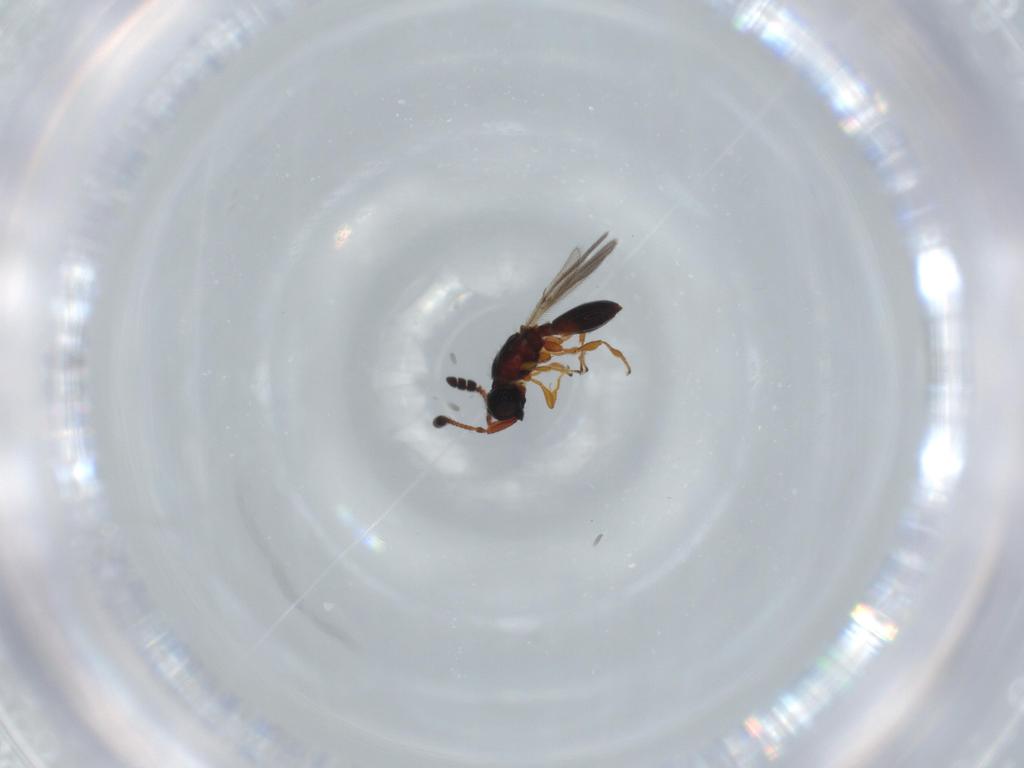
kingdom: Animalia
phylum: Arthropoda
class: Insecta
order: Hymenoptera
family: Diapriidae
